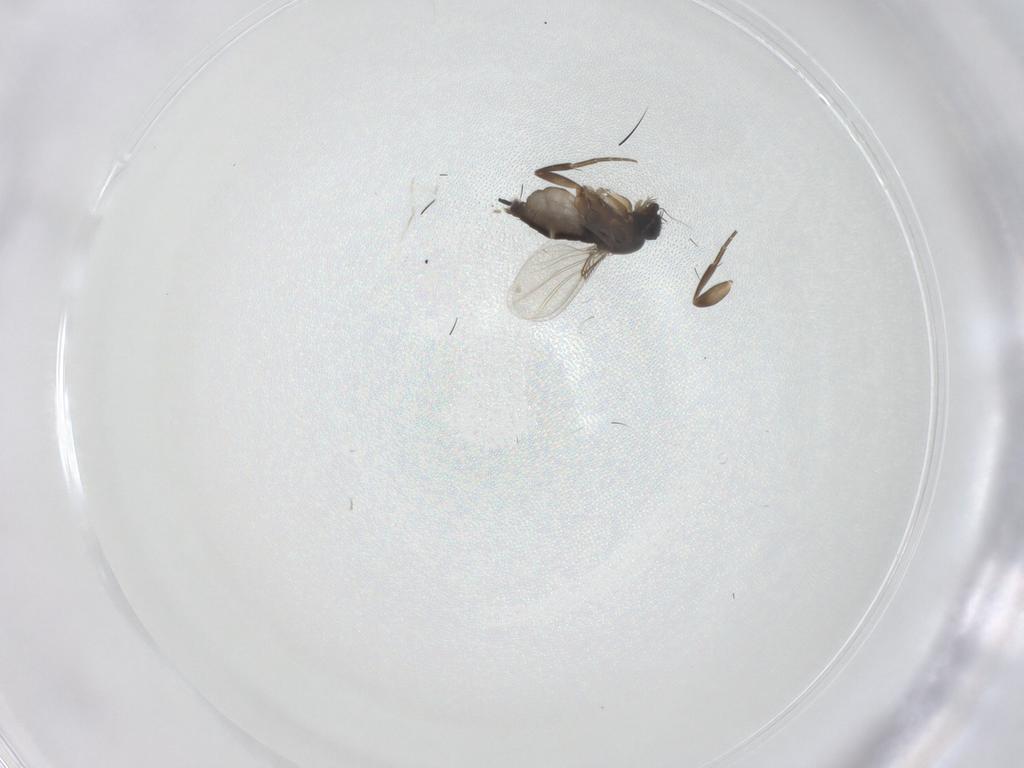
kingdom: Animalia
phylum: Arthropoda
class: Insecta
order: Diptera
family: Phoridae
